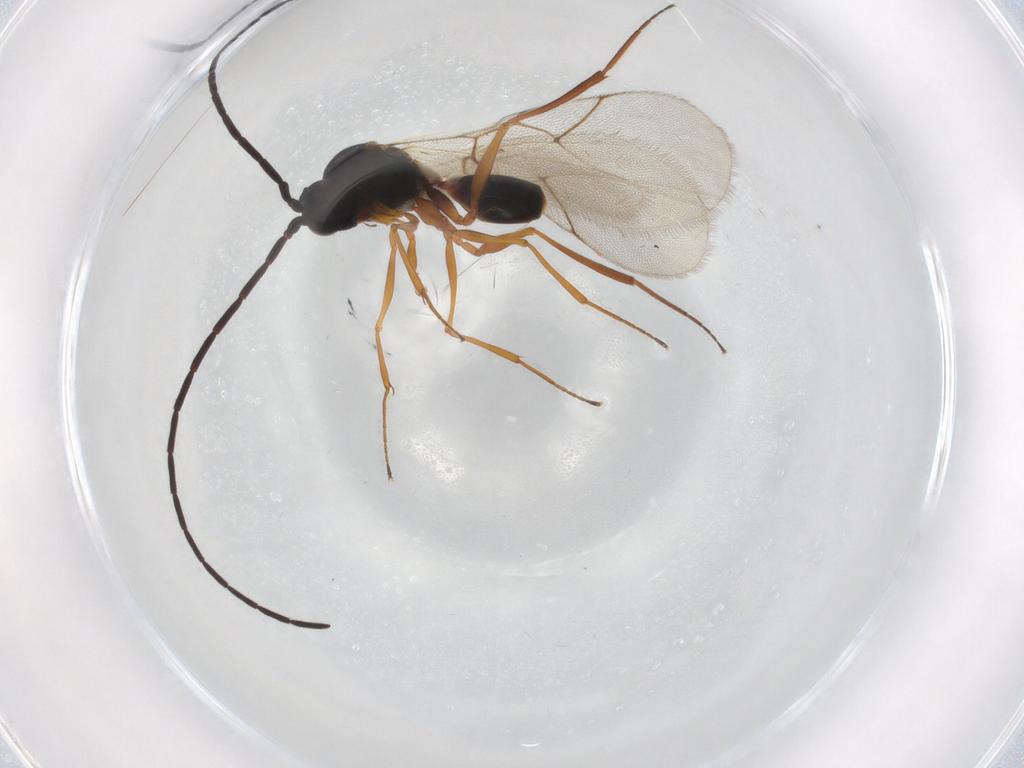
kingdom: Animalia
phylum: Arthropoda
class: Insecta
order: Hymenoptera
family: Figitidae
